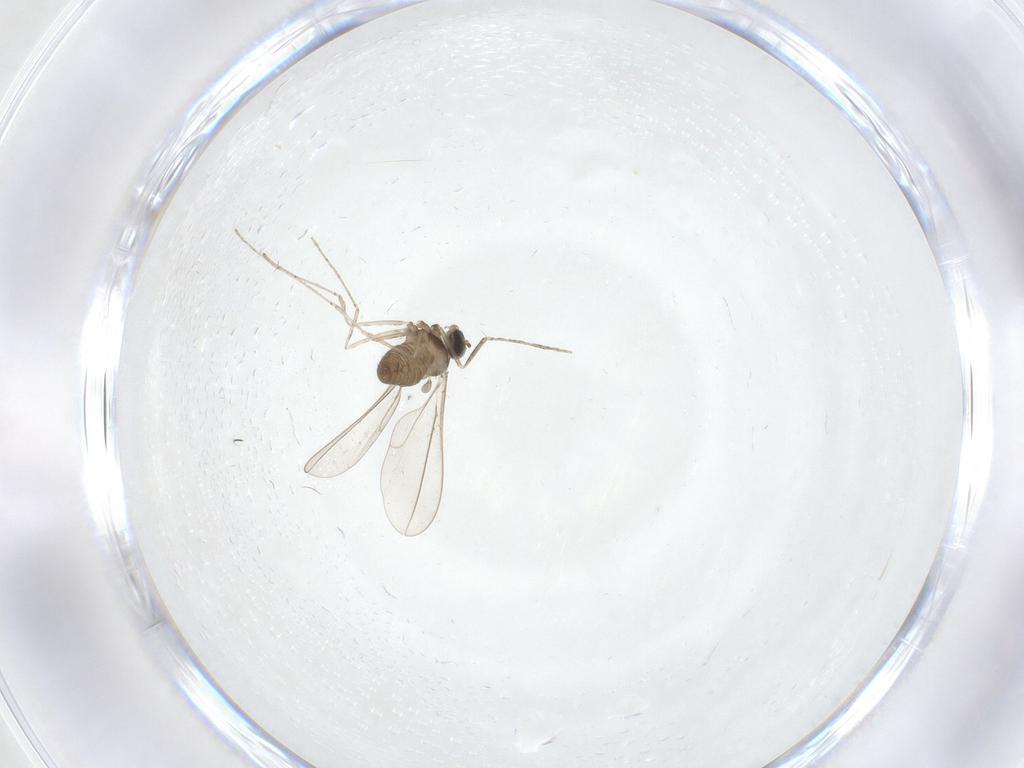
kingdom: Animalia
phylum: Arthropoda
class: Insecta
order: Diptera
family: Cecidomyiidae
